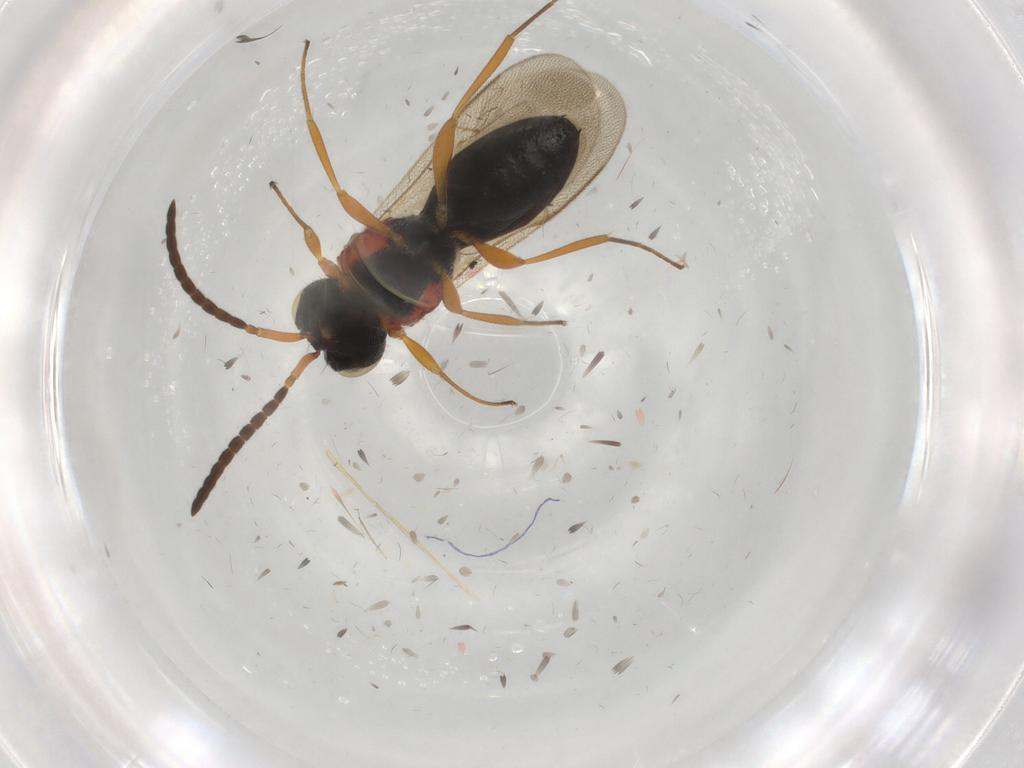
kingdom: Animalia
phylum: Arthropoda
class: Insecta
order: Hymenoptera
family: Scelionidae
